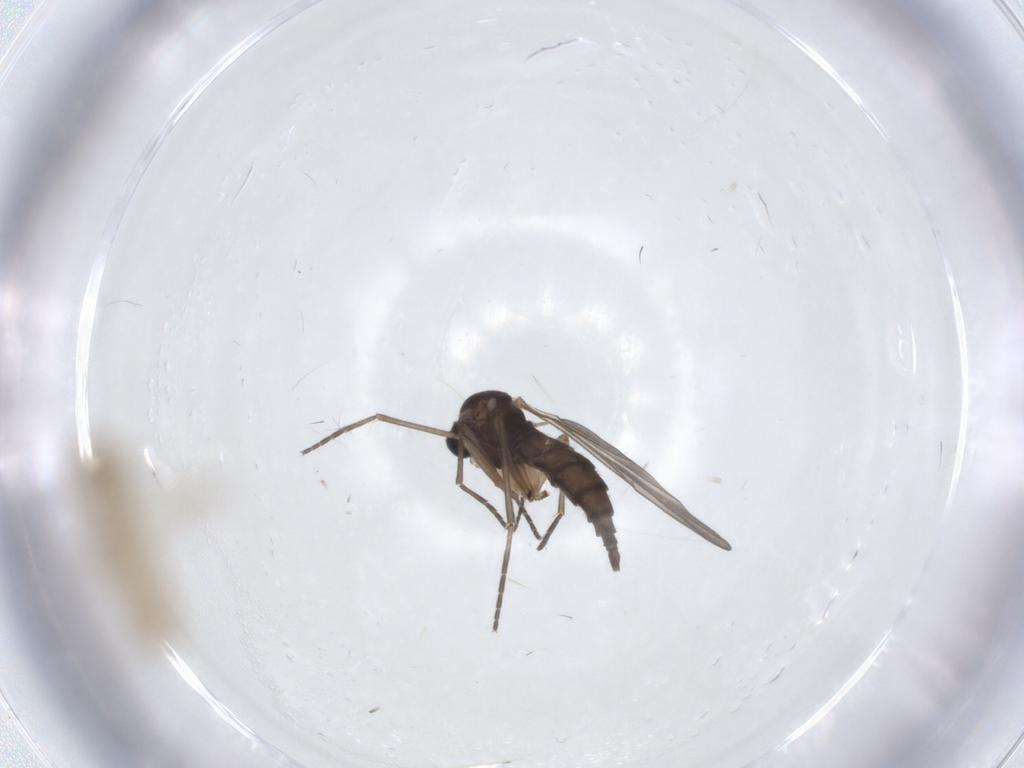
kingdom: Animalia
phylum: Arthropoda
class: Insecta
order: Diptera
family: Sciaridae
